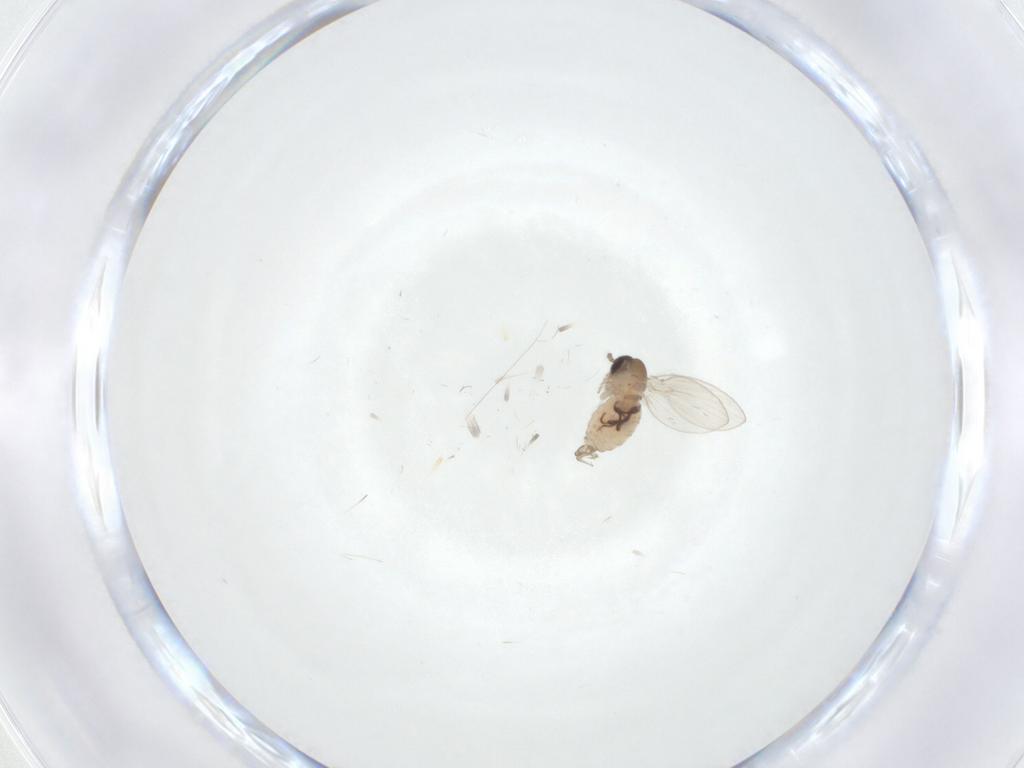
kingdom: Animalia
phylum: Arthropoda
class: Insecta
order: Diptera
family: Psychodidae
